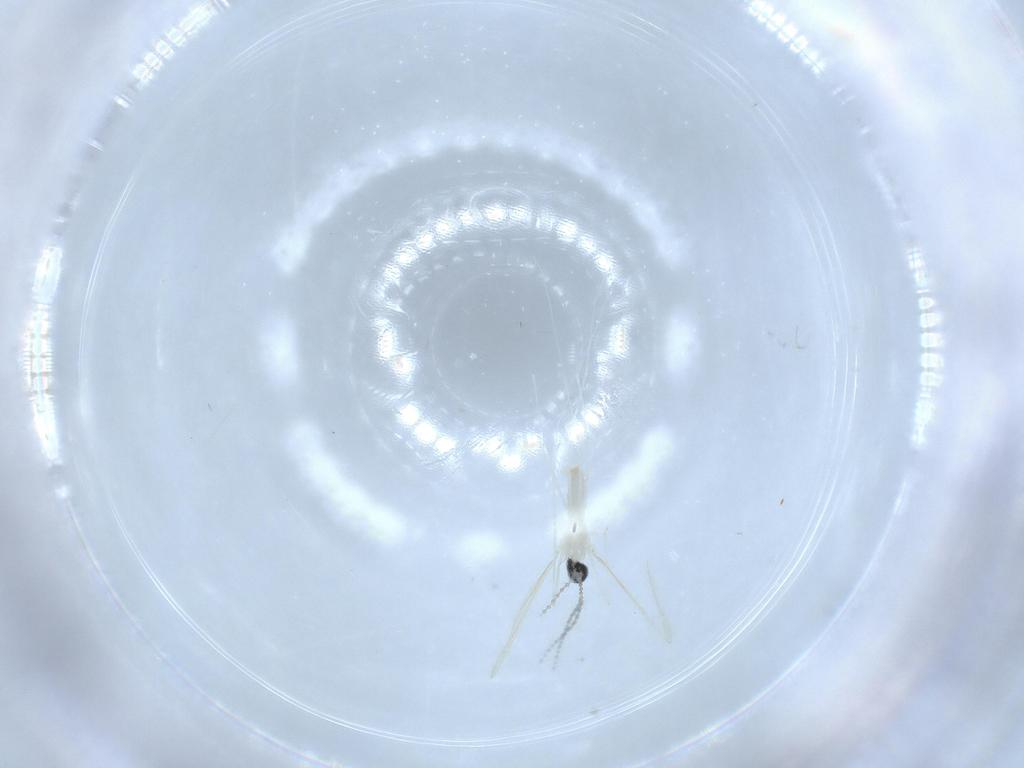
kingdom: Animalia
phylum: Arthropoda
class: Insecta
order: Diptera
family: Cecidomyiidae
